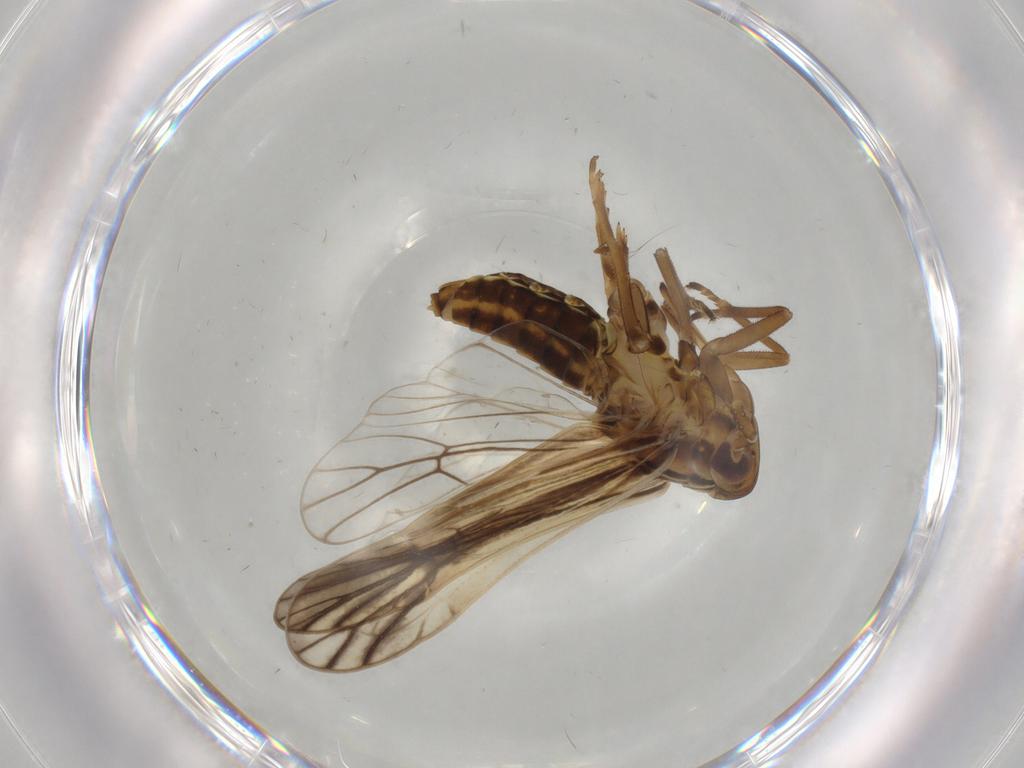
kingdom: Animalia
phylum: Arthropoda
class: Insecta
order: Hemiptera
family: Delphacidae
